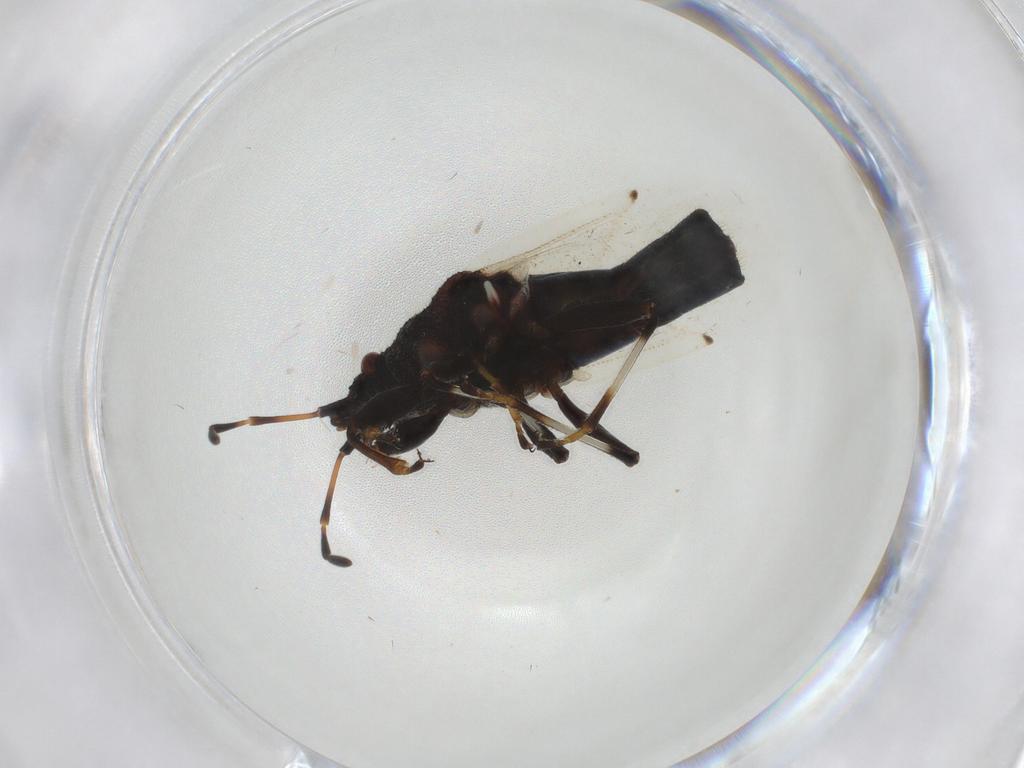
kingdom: Animalia
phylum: Arthropoda
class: Insecta
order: Hemiptera
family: Oxycarenidae
